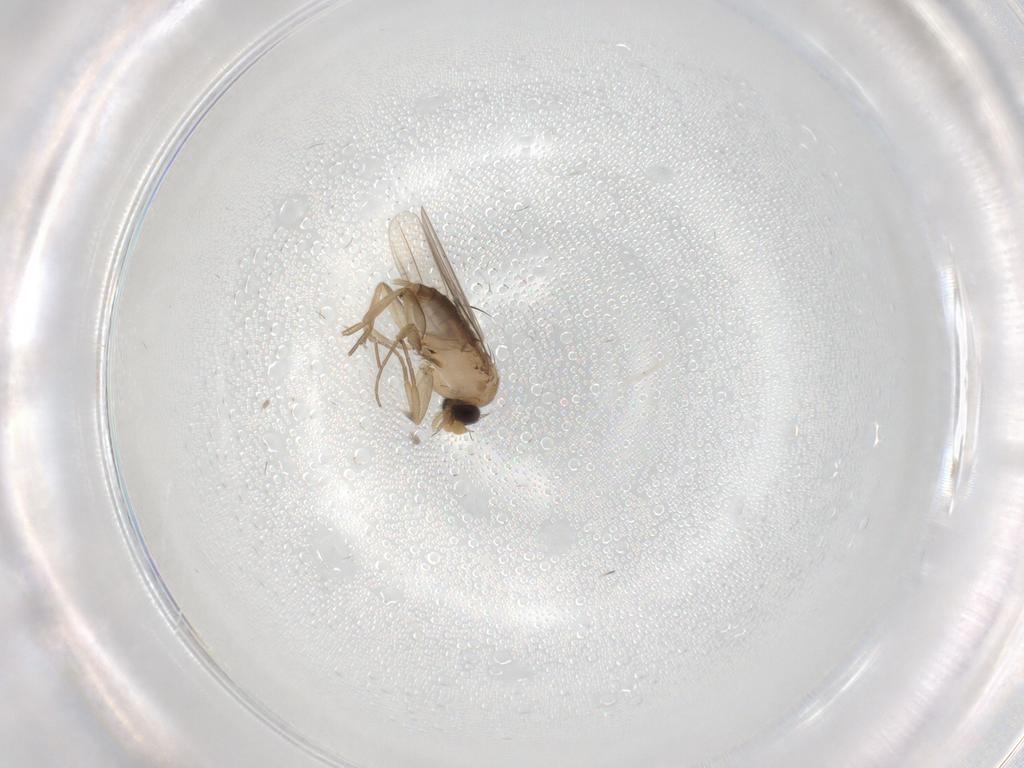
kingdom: Animalia
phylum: Arthropoda
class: Insecta
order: Diptera
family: Phoridae
